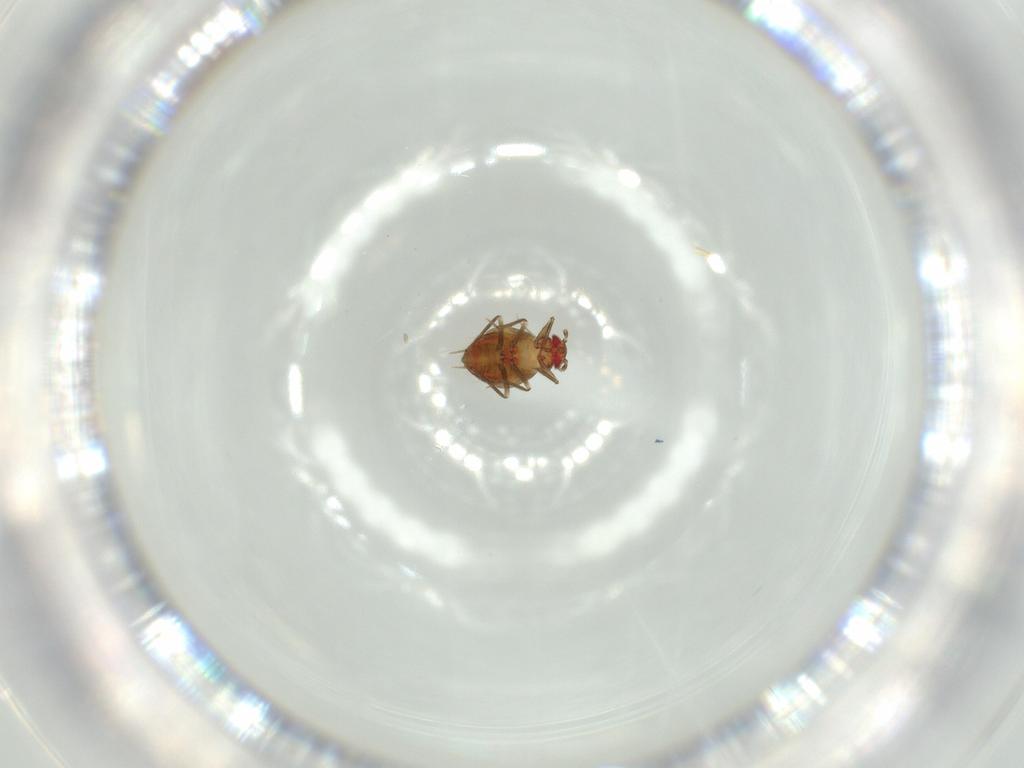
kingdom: Animalia
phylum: Arthropoda
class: Insecta
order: Hemiptera
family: Schizopteridae
